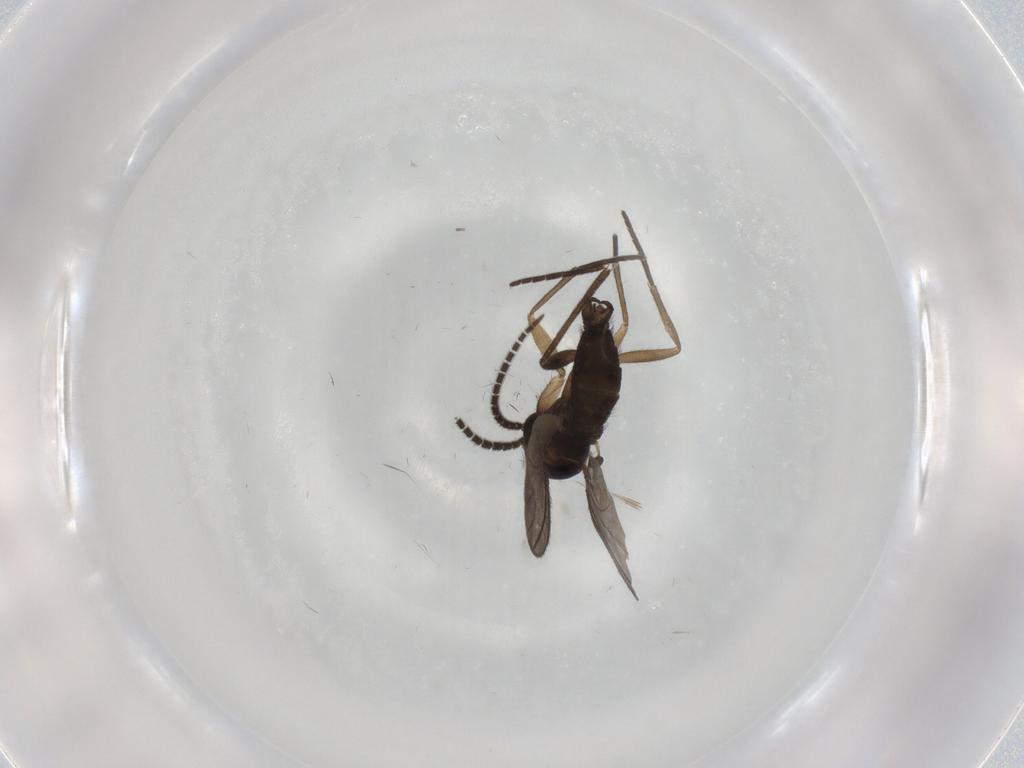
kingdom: Animalia
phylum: Arthropoda
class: Insecta
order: Diptera
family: Sciaridae
